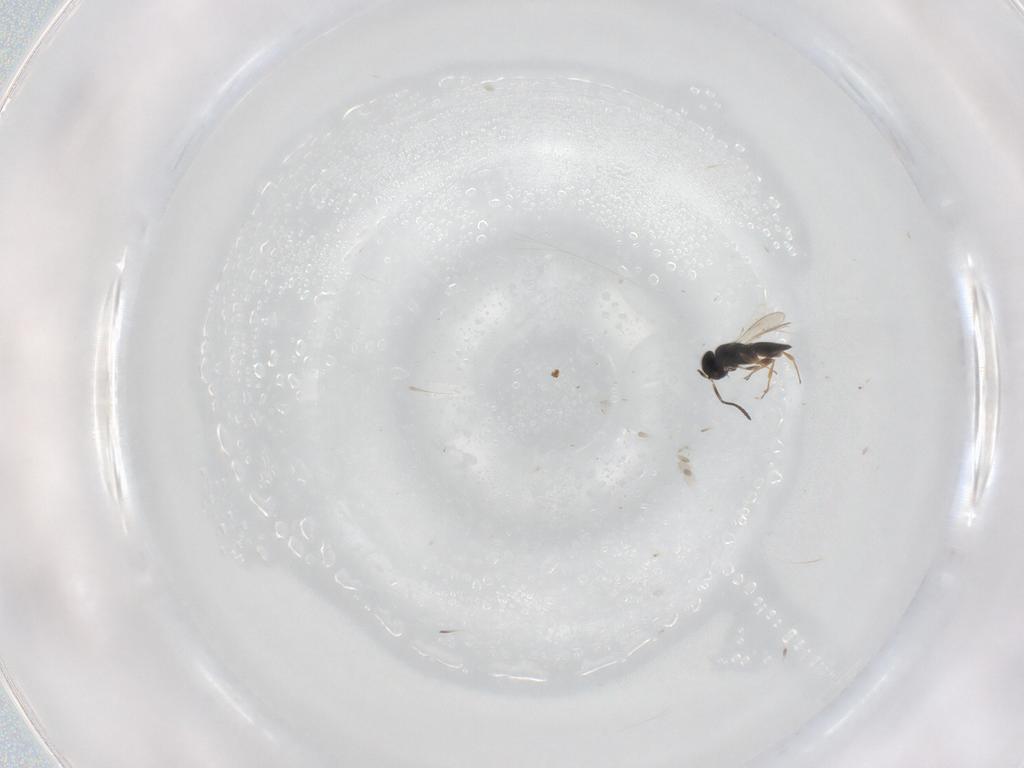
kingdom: Animalia
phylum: Arthropoda
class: Insecta
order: Hymenoptera
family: Scelionidae
